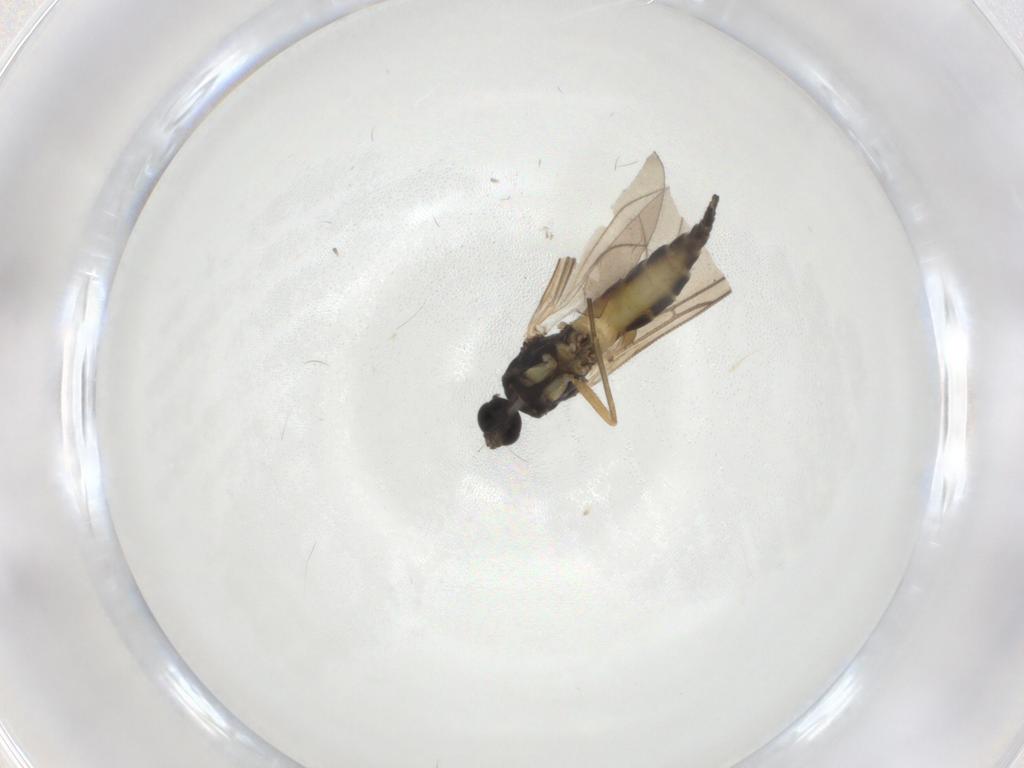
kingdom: Animalia
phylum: Arthropoda
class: Insecta
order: Diptera
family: Sciaridae
